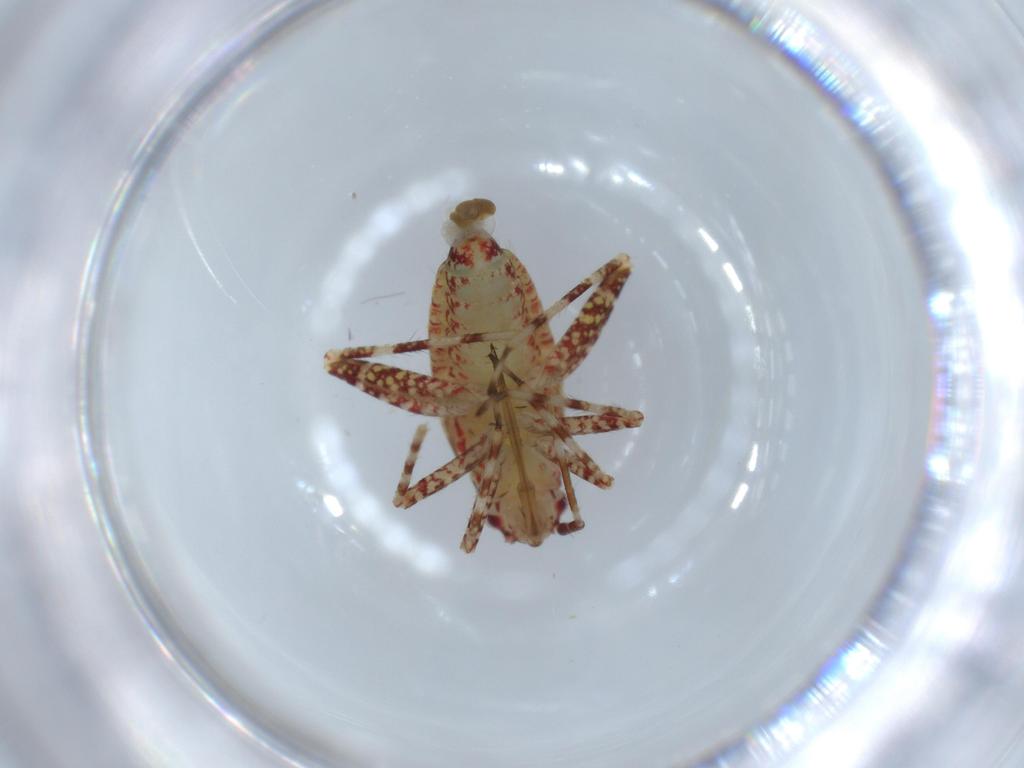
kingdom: Animalia
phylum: Arthropoda
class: Insecta
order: Hemiptera
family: Miridae
